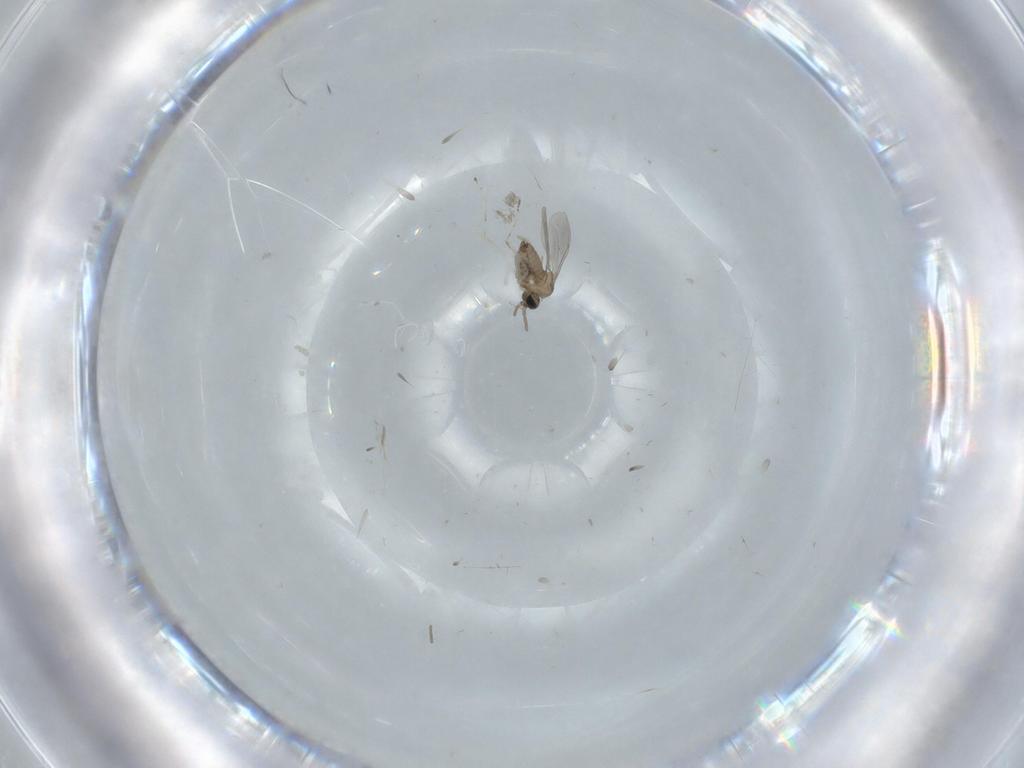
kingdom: Animalia
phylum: Arthropoda
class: Insecta
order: Diptera
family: Cecidomyiidae
